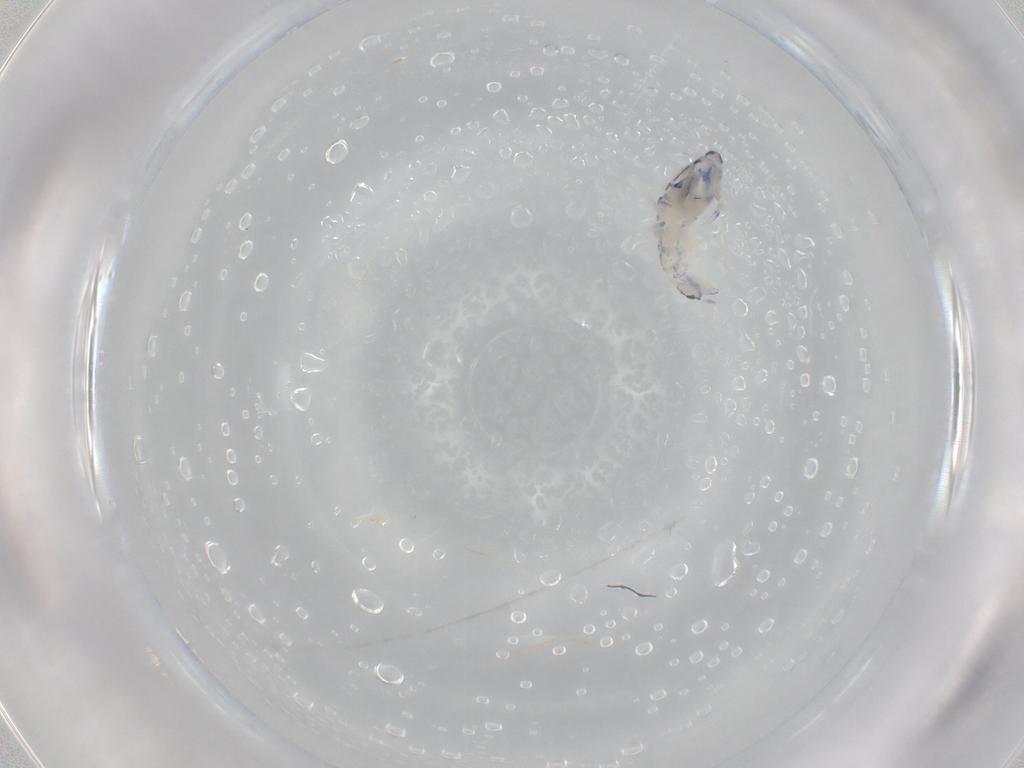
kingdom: Animalia
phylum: Arthropoda
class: Collembola
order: Entomobryomorpha
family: Entomobryidae
